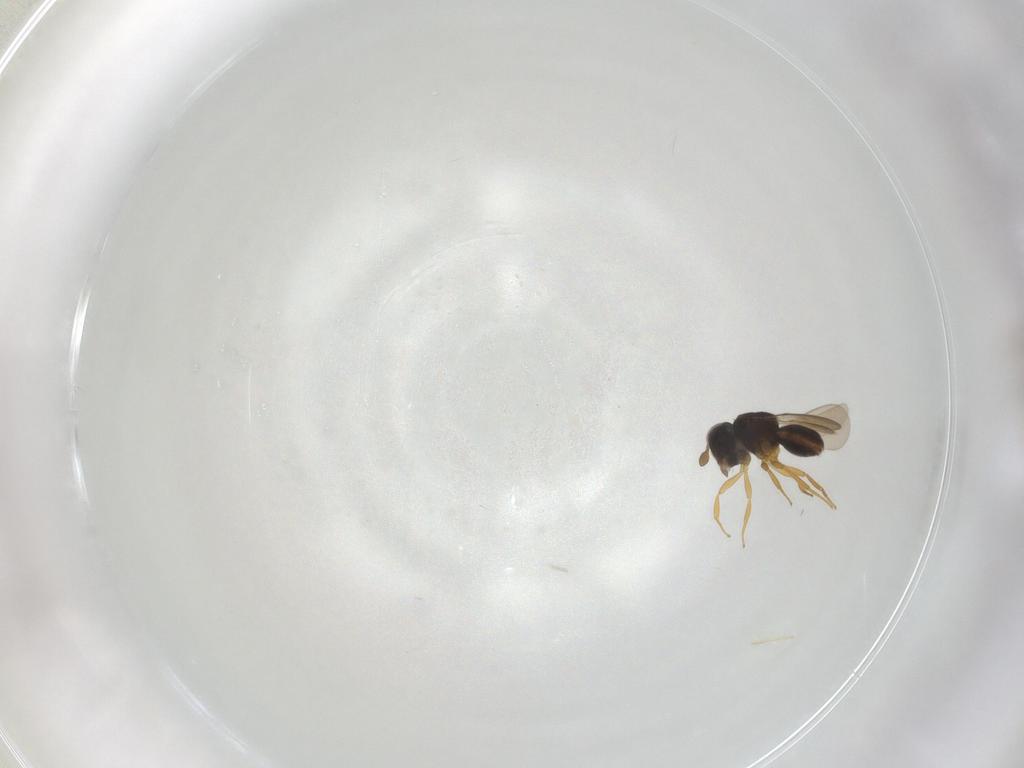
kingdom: Animalia
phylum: Arthropoda
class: Insecta
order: Hymenoptera
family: Scelionidae
